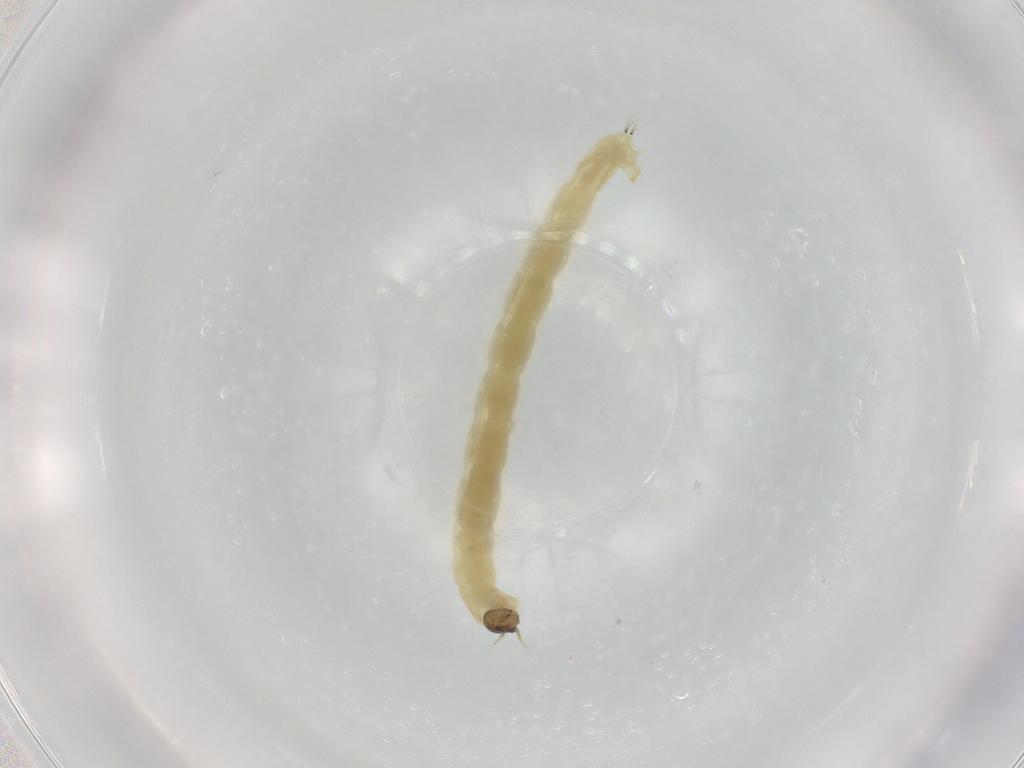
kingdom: Animalia
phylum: Arthropoda
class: Insecta
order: Diptera
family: Chironomidae
